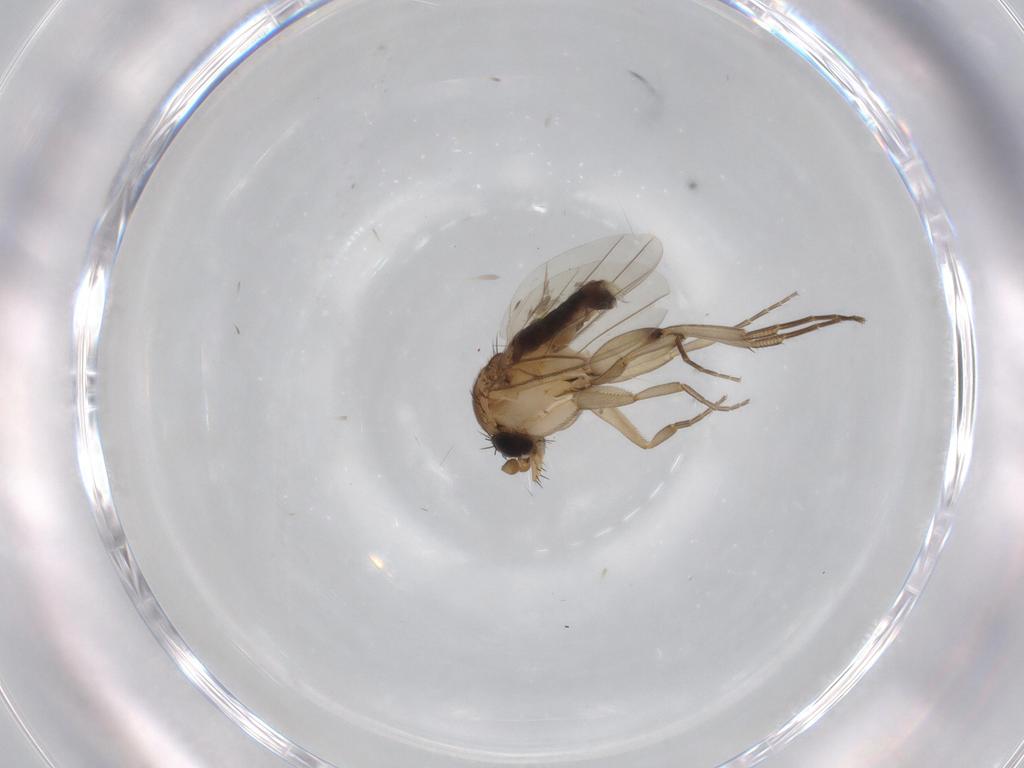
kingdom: Animalia
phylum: Arthropoda
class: Insecta
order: Diptera
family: Phoridae
